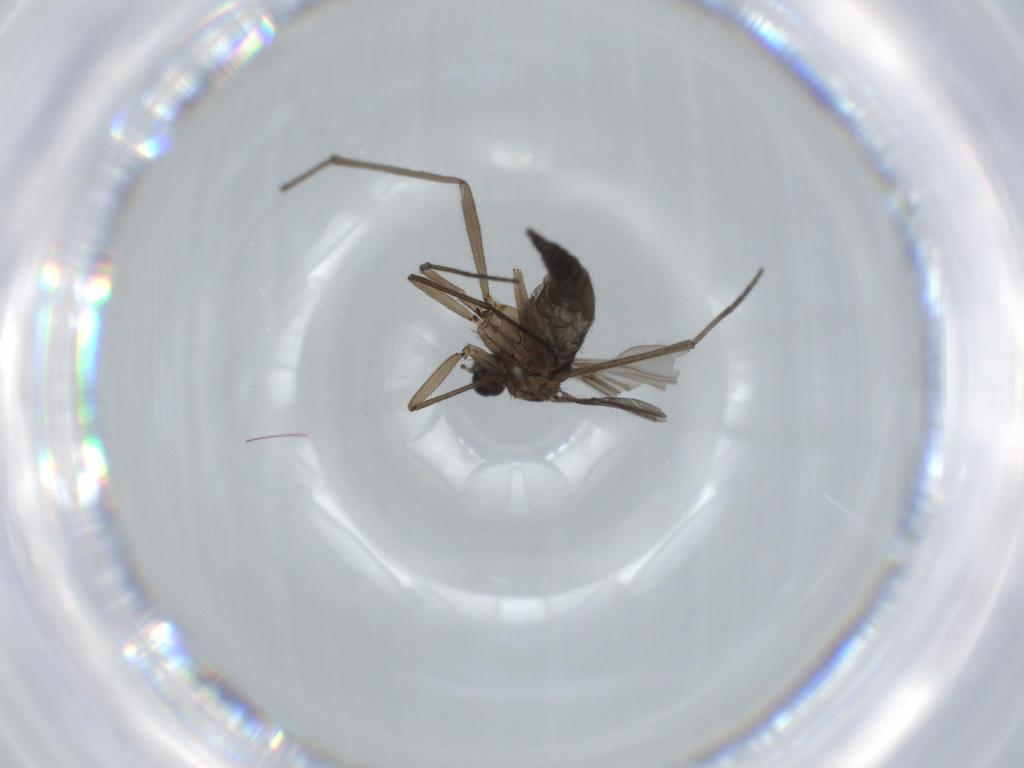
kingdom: Animalia
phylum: Arthropoda
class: Insecta
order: Diptera
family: Sciaridae
